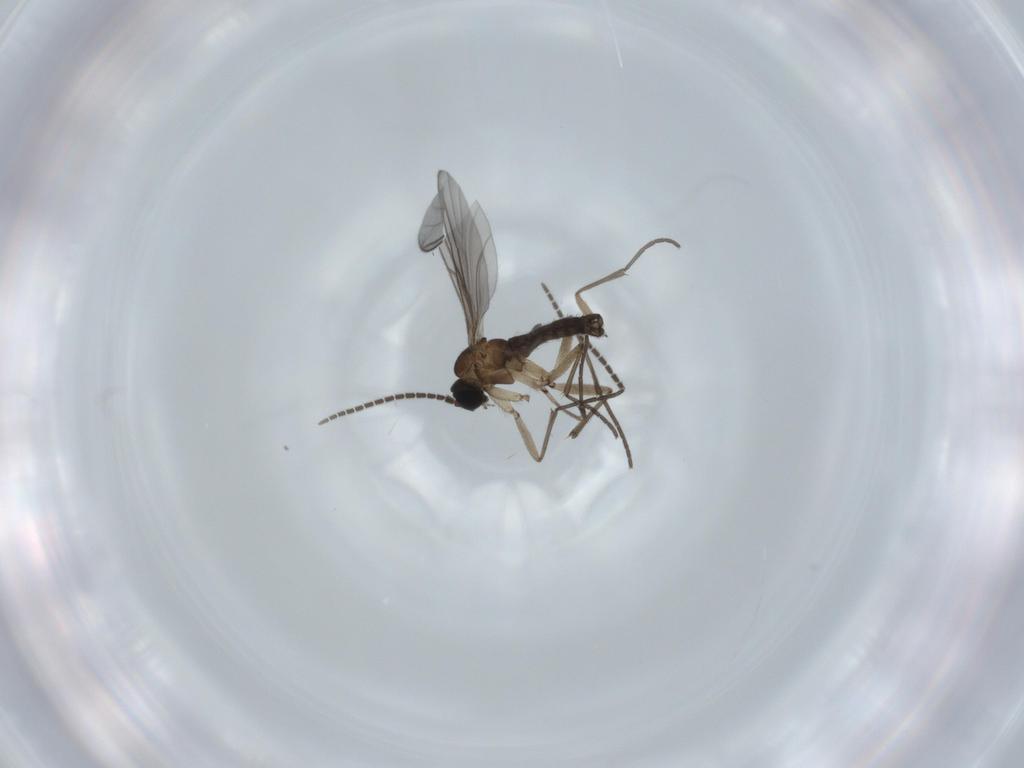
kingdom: Animalia
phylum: Arthropoda
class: Insecta
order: Diptera
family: Sciaridae
